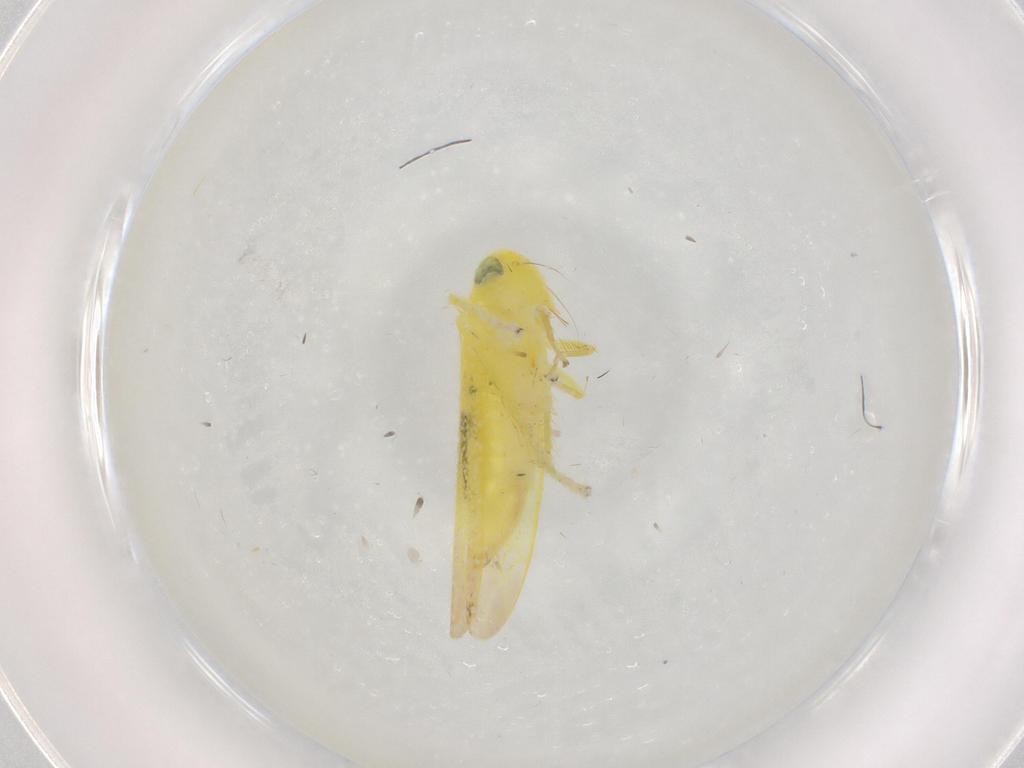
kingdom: Animalia
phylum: Arthropoda
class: Insecta
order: Hemiptera
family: Cicadellidae
